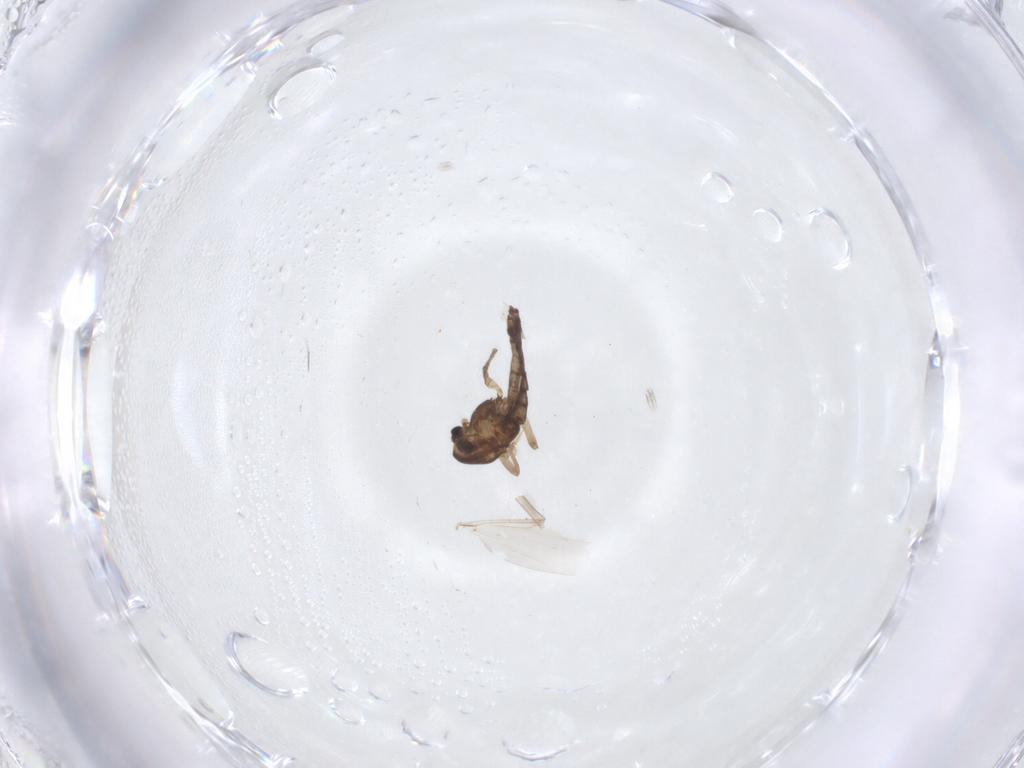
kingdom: Animalia
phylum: Arthropoda
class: Insecta
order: Diptera
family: Chironomidae
